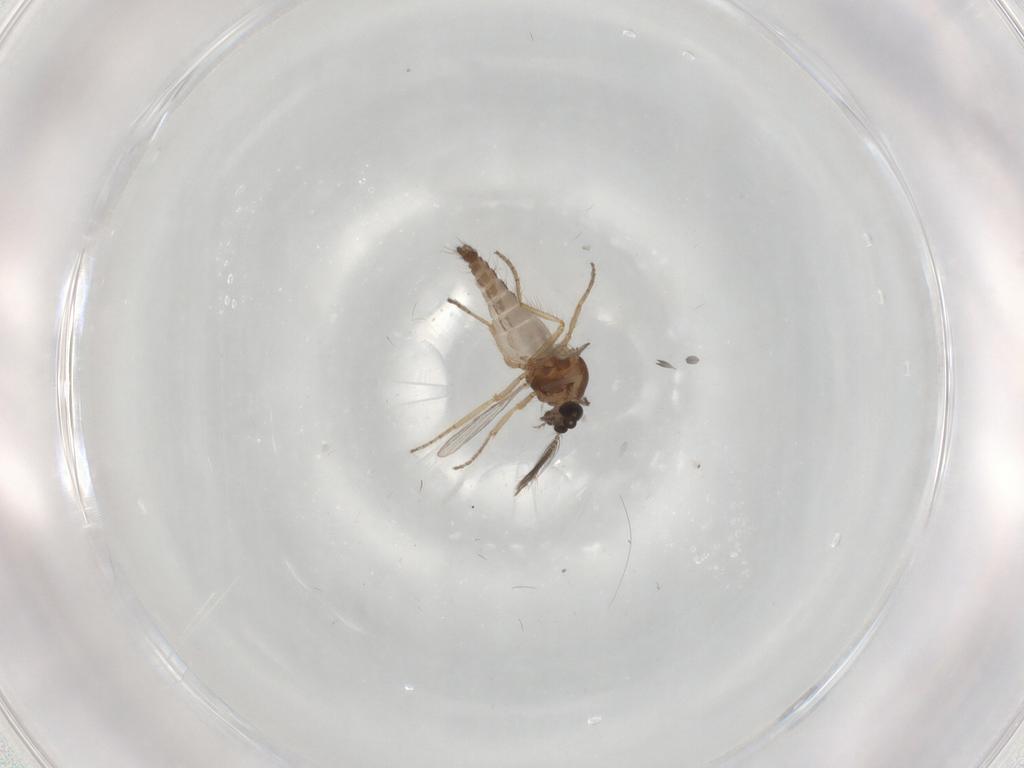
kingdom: Animalia
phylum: Arthropoda
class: Insecta
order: Diptera
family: Ceratopogonidae
